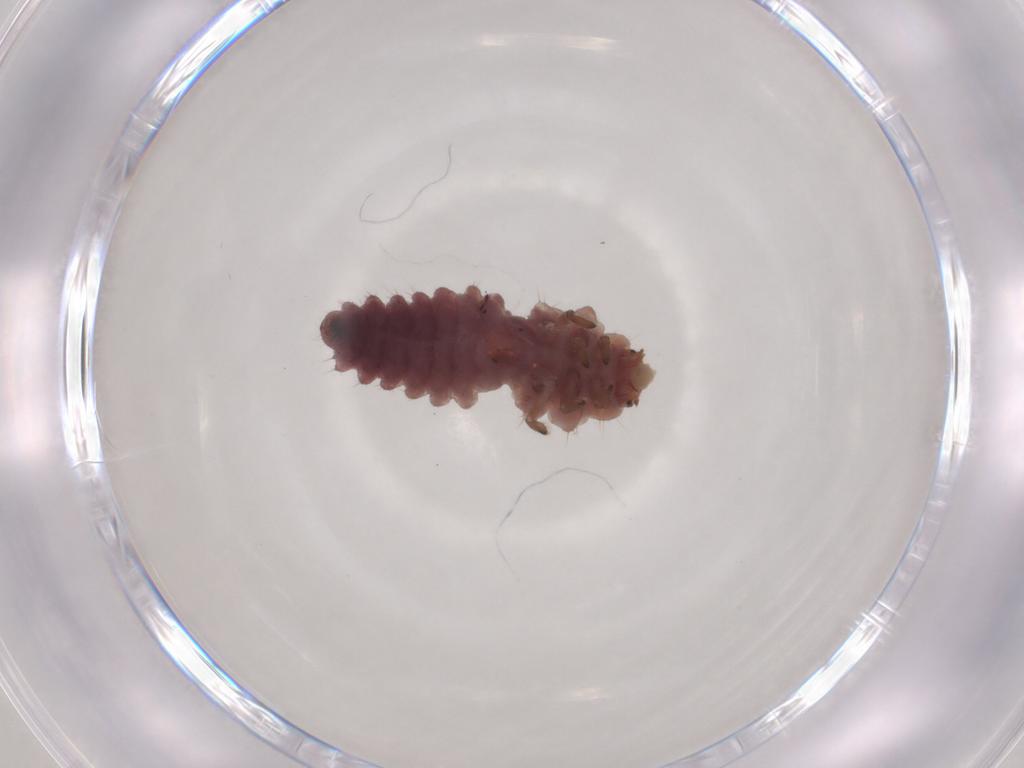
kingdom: Animalia
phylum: Arthropoda
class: Insecta
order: Coleoptera
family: Coccinellidae
